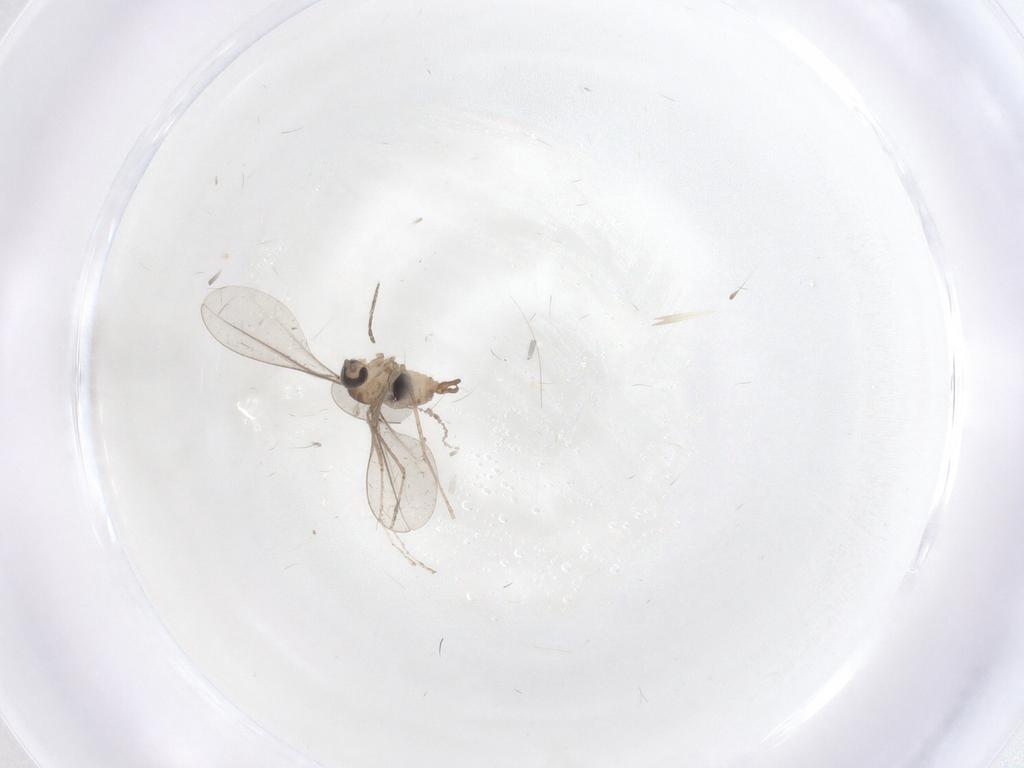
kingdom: Animalia
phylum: Arthropoda
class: Insecta
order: Diptera
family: Cecidomyiidae
